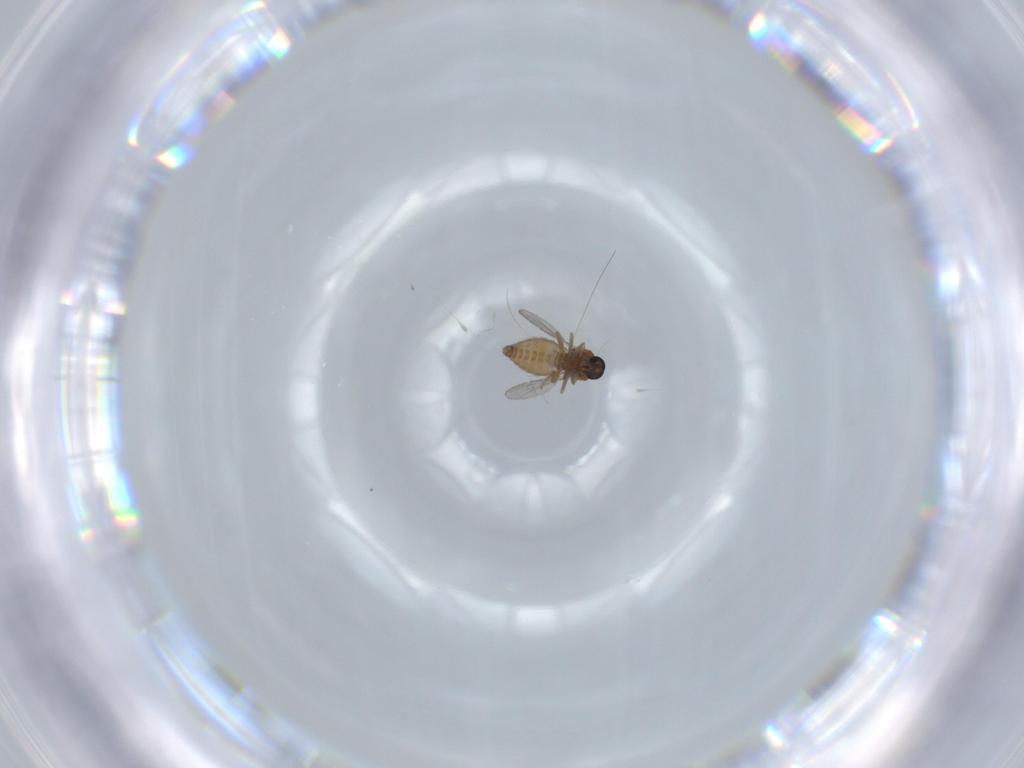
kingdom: Animalia
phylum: Arthropoda
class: Insecta
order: Diptera
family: Ceratopogonidae
